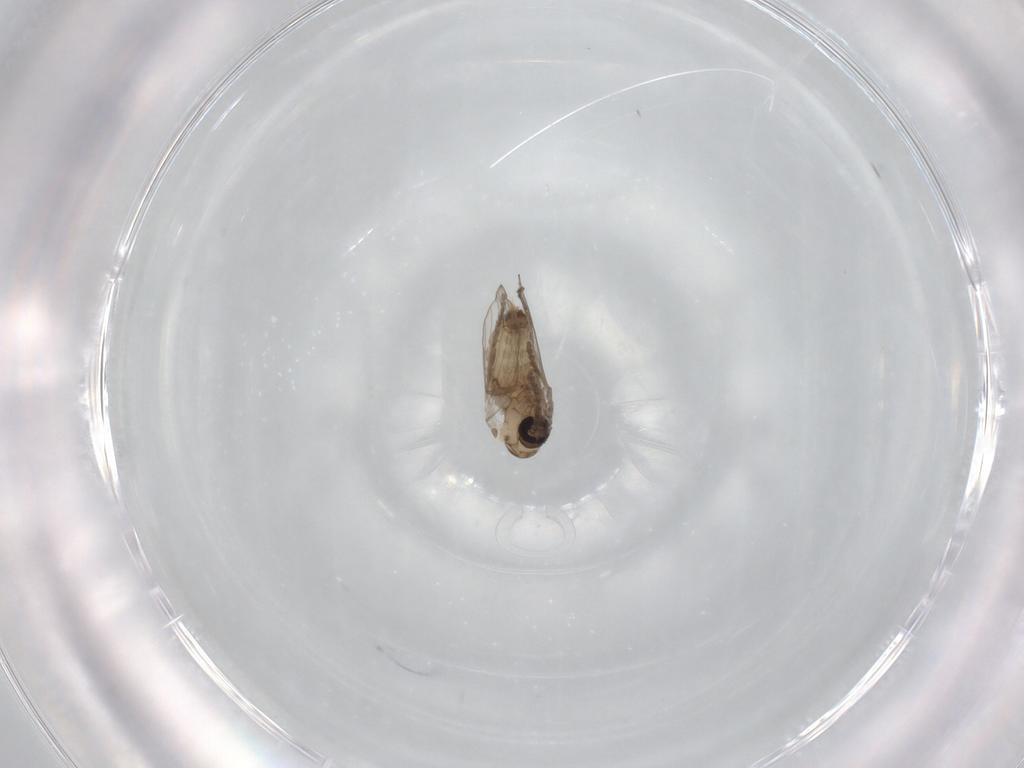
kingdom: Animalia
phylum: Arthropoda
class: Insecta
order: Diptera
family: Psychodidae
